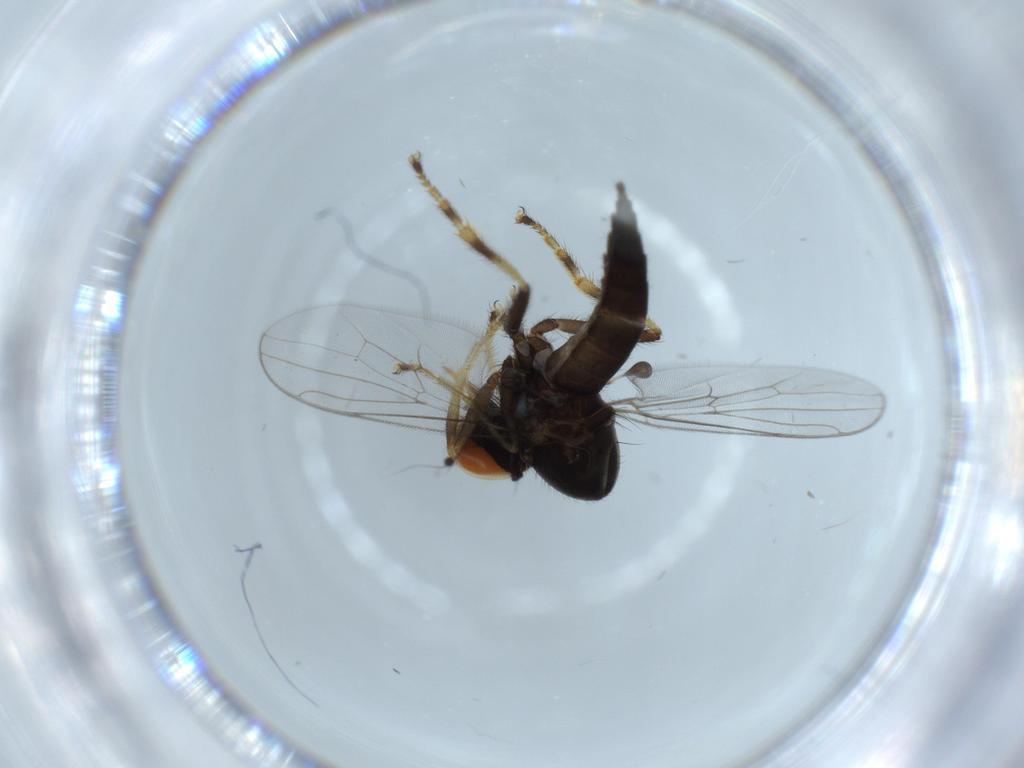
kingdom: Animalia
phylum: Arthropoda
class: Insecta
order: Diptera
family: Hybotidae
